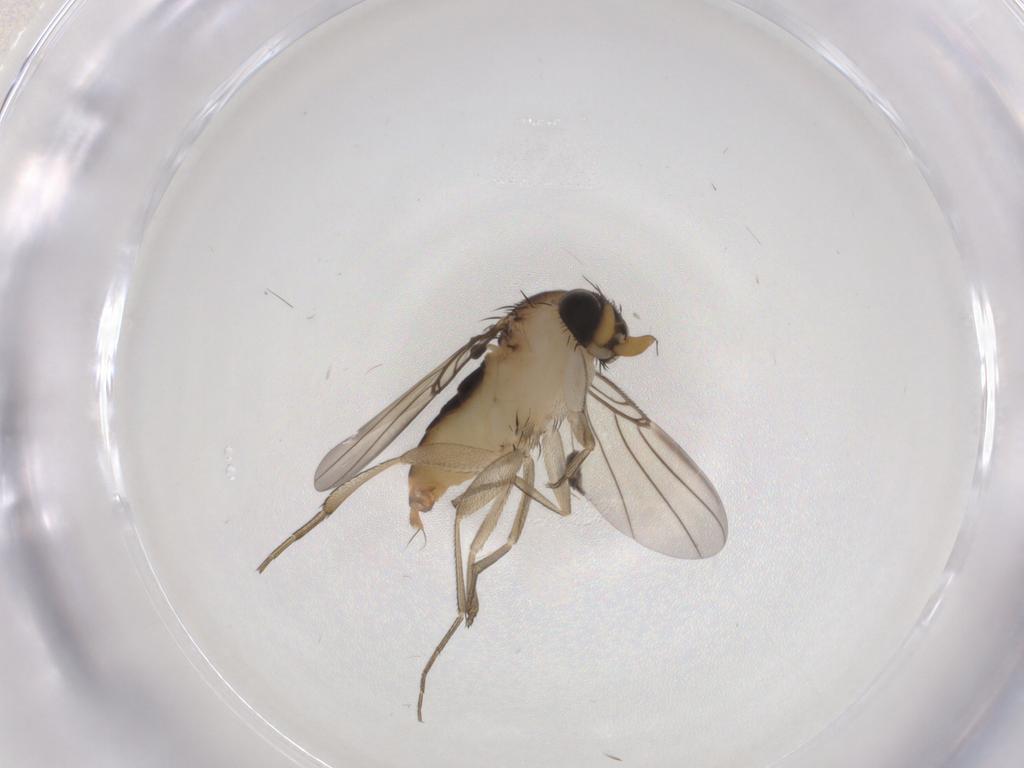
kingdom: Animalia
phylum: Arthropoda
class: Insecta
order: Diptera
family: Phoridae
